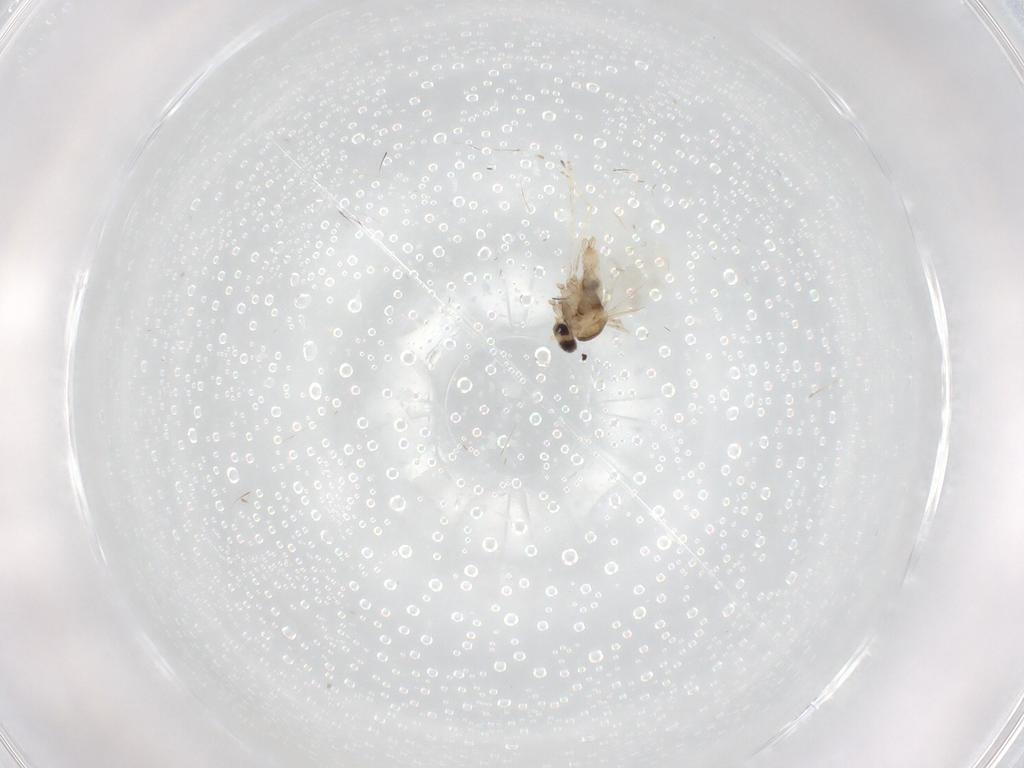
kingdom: Animalia
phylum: Arthropoda
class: Insecta
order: Diptera
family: Cecidomyiidae
